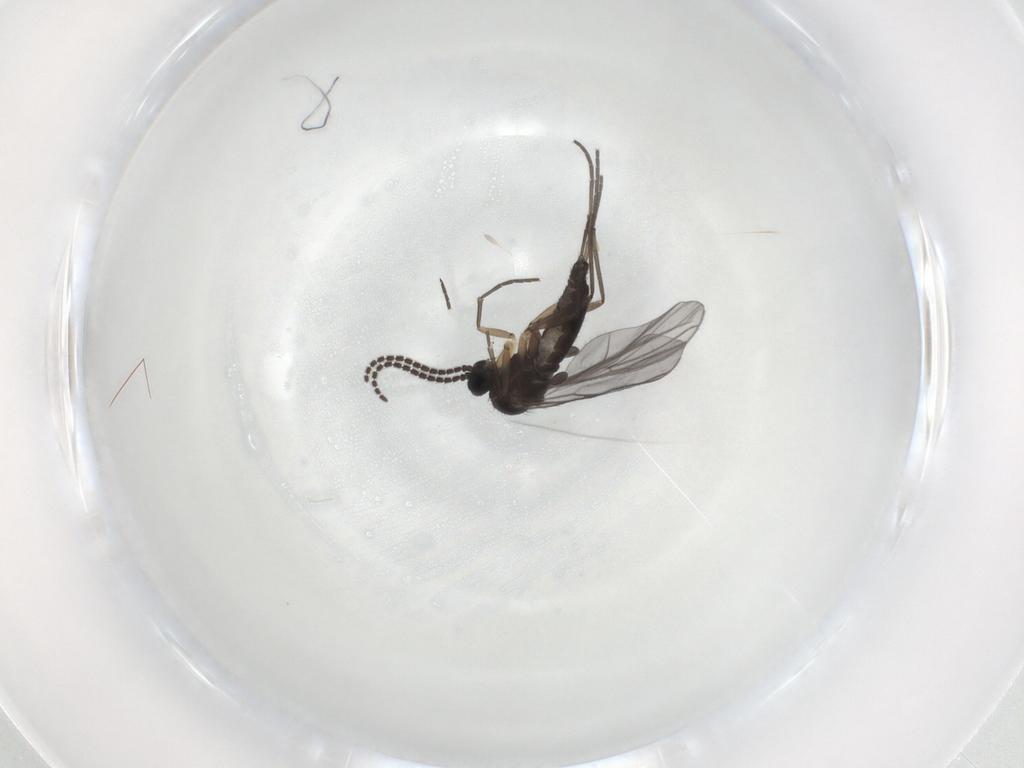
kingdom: Animalia
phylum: Arthropoda
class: Insecta
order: Diptera
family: Sciaridae
